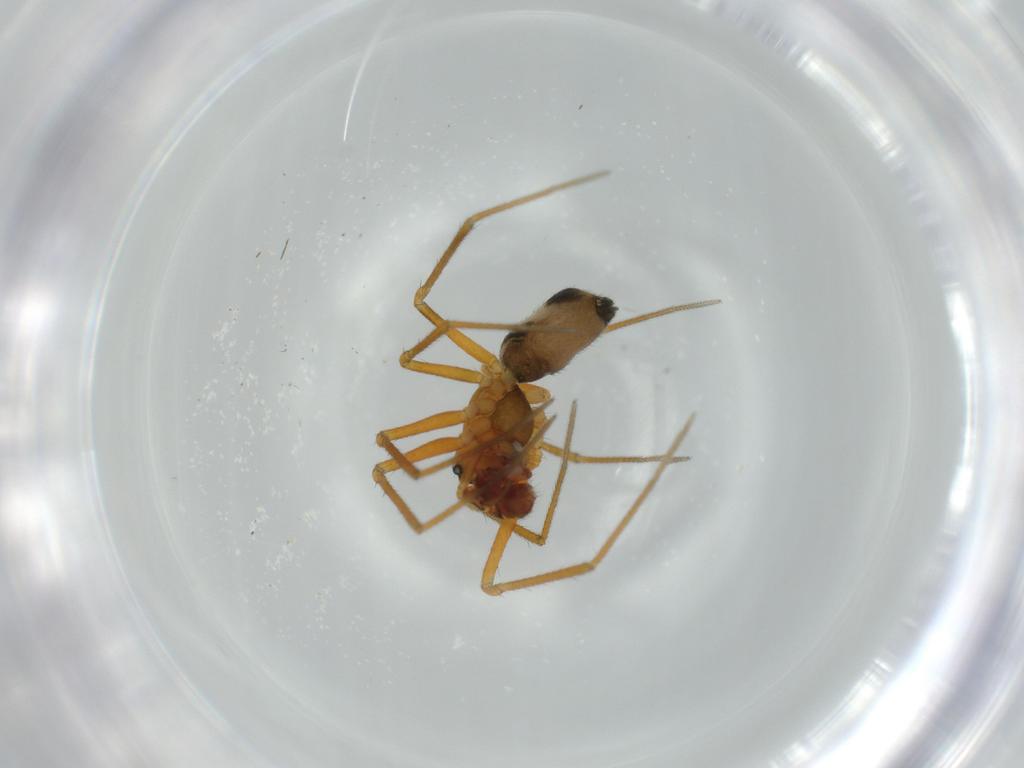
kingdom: Animalia
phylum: Arthropoda
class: Arachnida
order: Araneae
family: Linyphiidae
